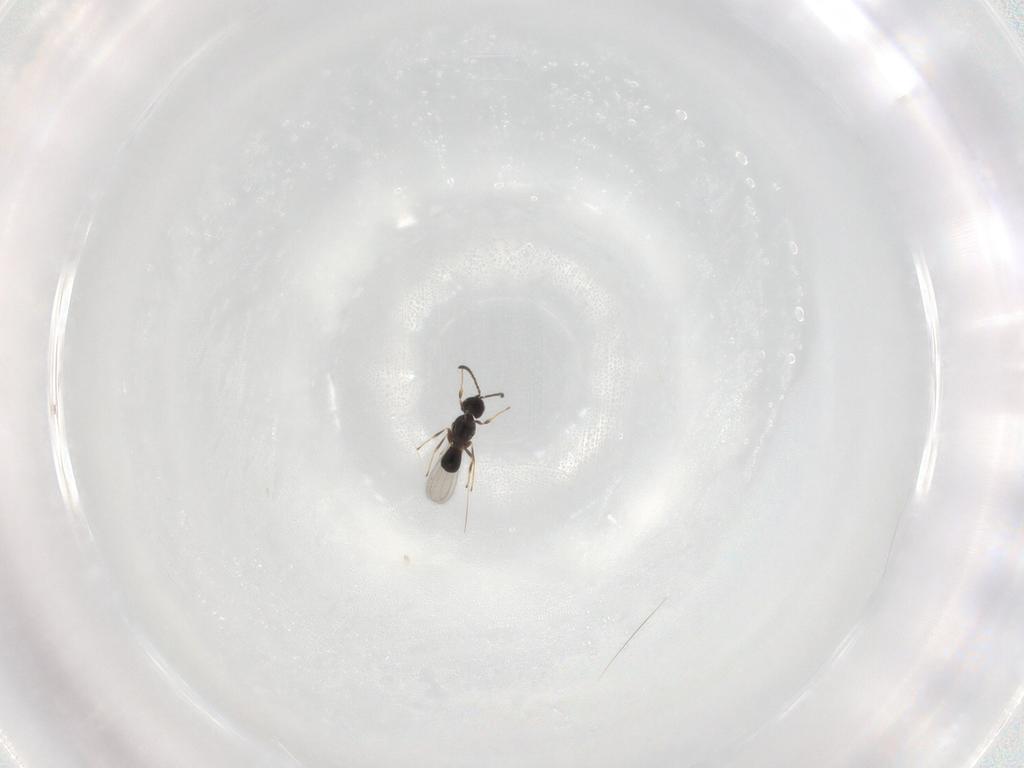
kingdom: Animalia
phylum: Arthropoda
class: Insecta
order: Hymenoptera
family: Scelionidae
